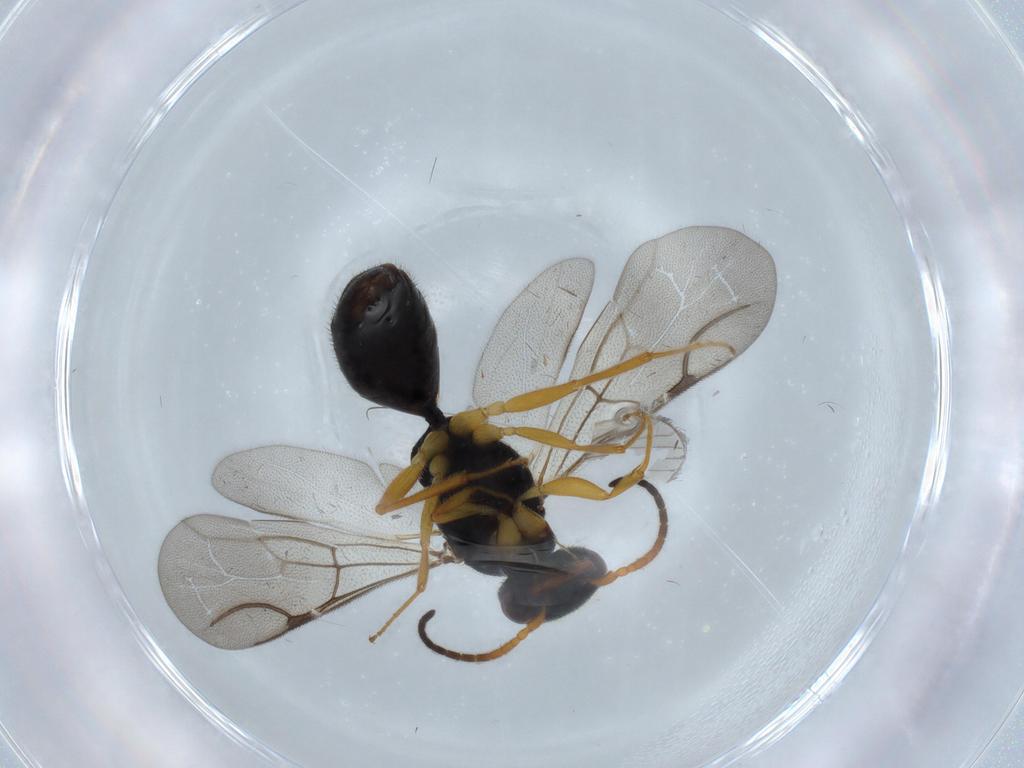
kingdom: Animalia
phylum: Arthropoda
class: Insecta
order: Hymenoptera
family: Bethylidae
